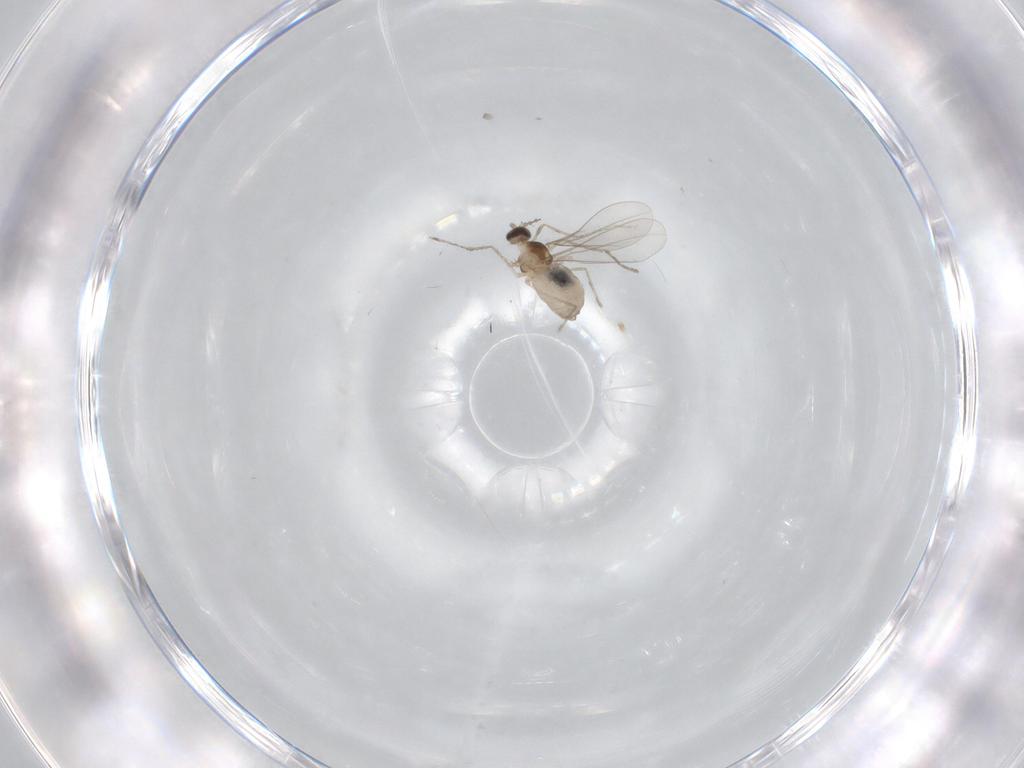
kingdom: Animalia
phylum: Arthropoda
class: Insecta
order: Diptera
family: Cecidomyiidae
